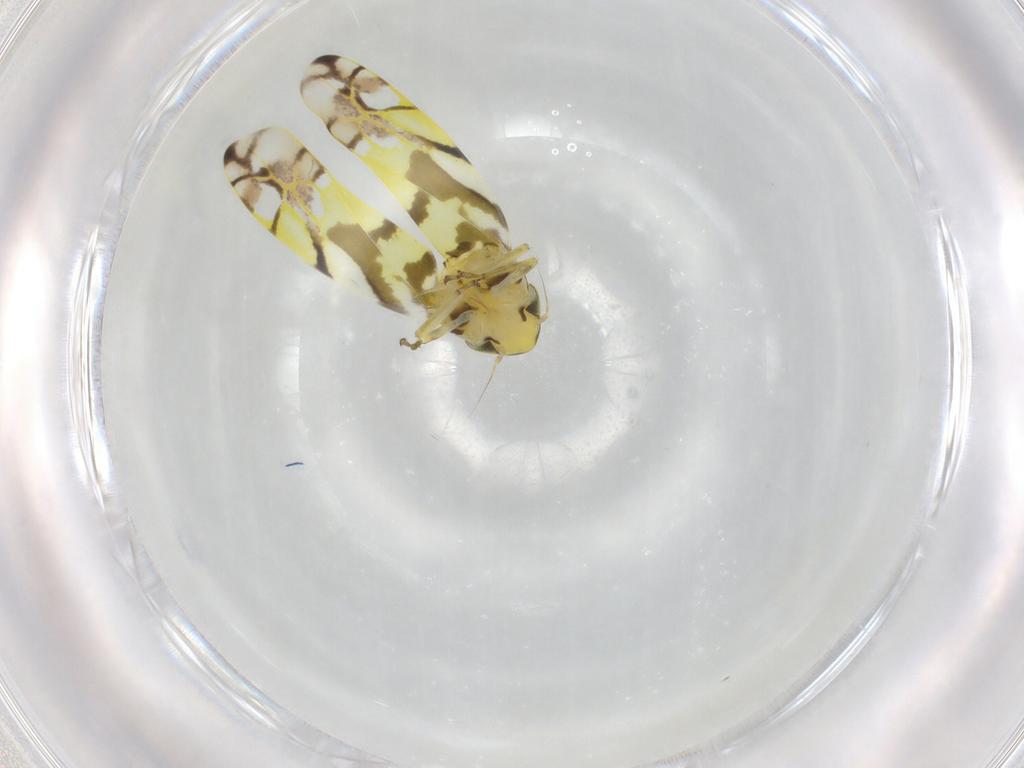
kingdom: Animalia
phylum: Arthropoda
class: Insecta
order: Hemiptera
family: Cicadellidae
